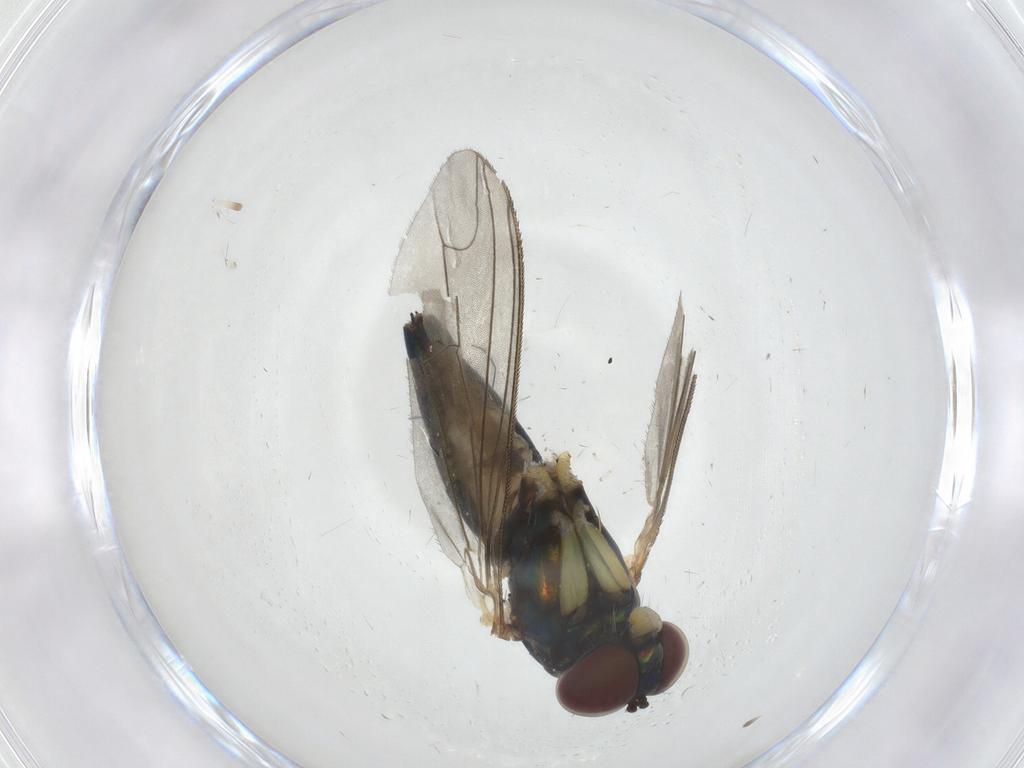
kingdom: Animalia
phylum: Arthropoda
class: Insecta
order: Diptera
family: Dolichopodidae
